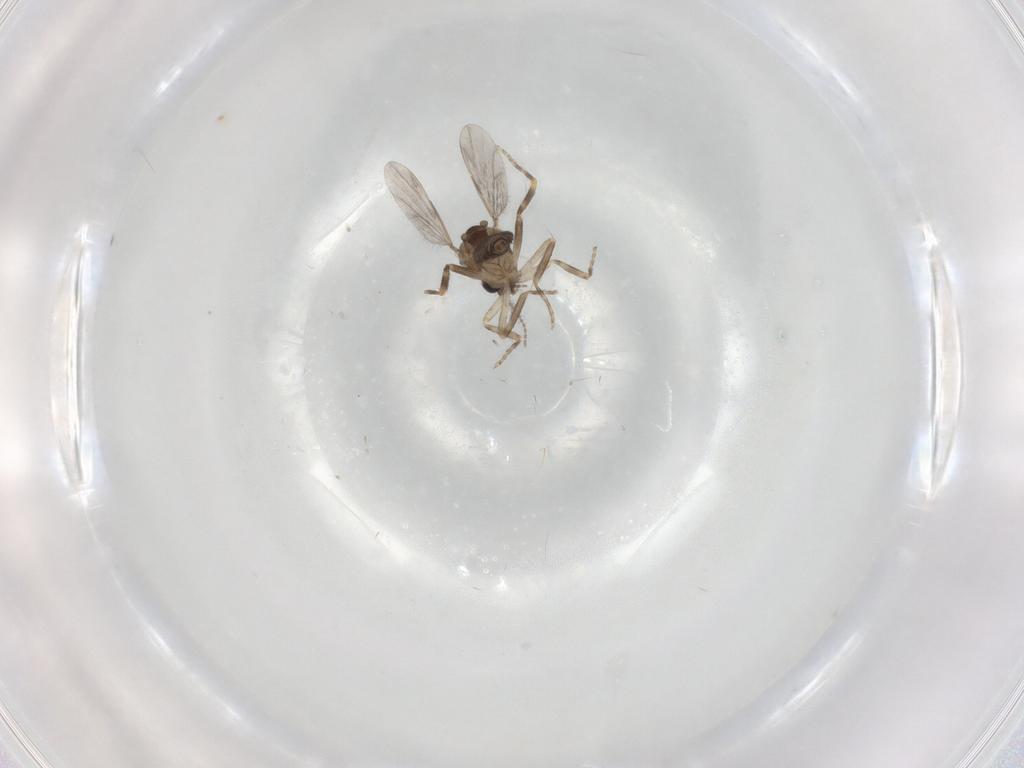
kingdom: Animalia
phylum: Arthropoda
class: Insecta
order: Diptera
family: Ceratopogonidae
